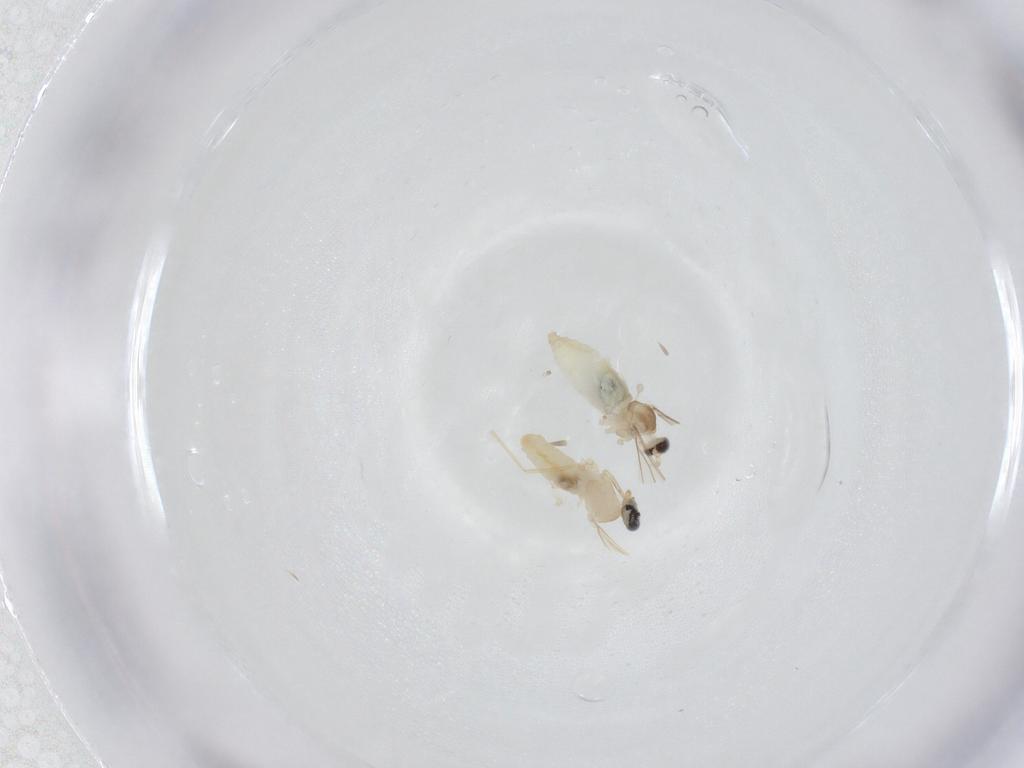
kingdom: Animalia
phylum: Arthropoda
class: Insecta
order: Diptera
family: Cecidomyiidae
